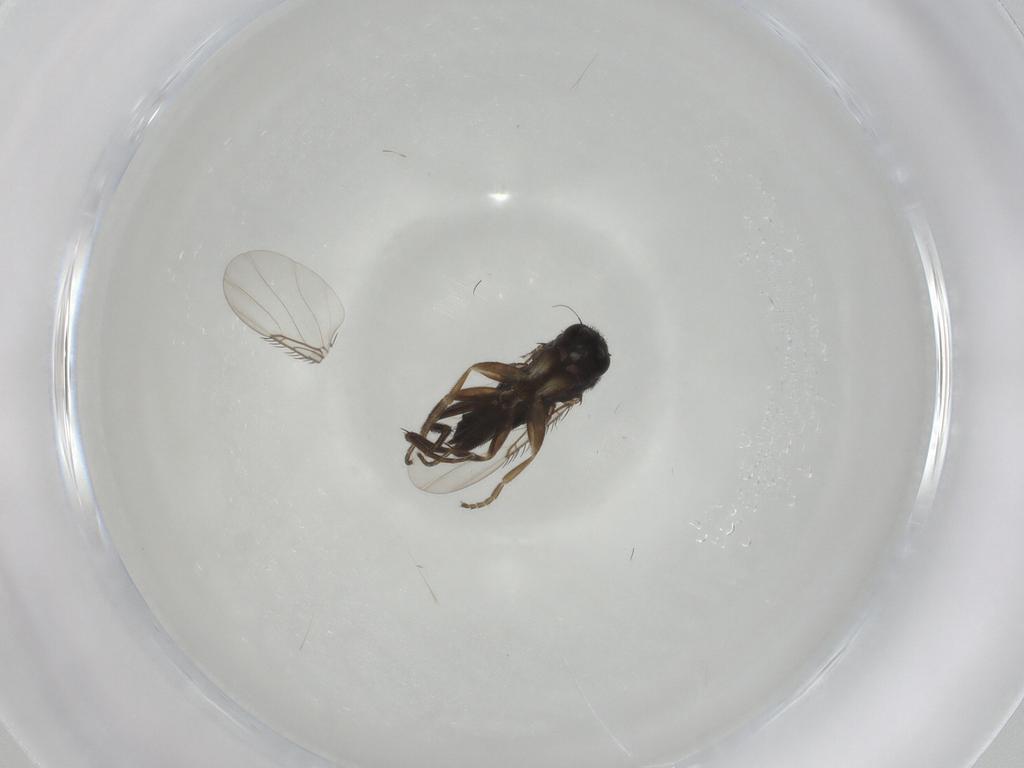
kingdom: Animalia
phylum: Arthropoda
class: Insecta
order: Diptera
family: Phoridae
